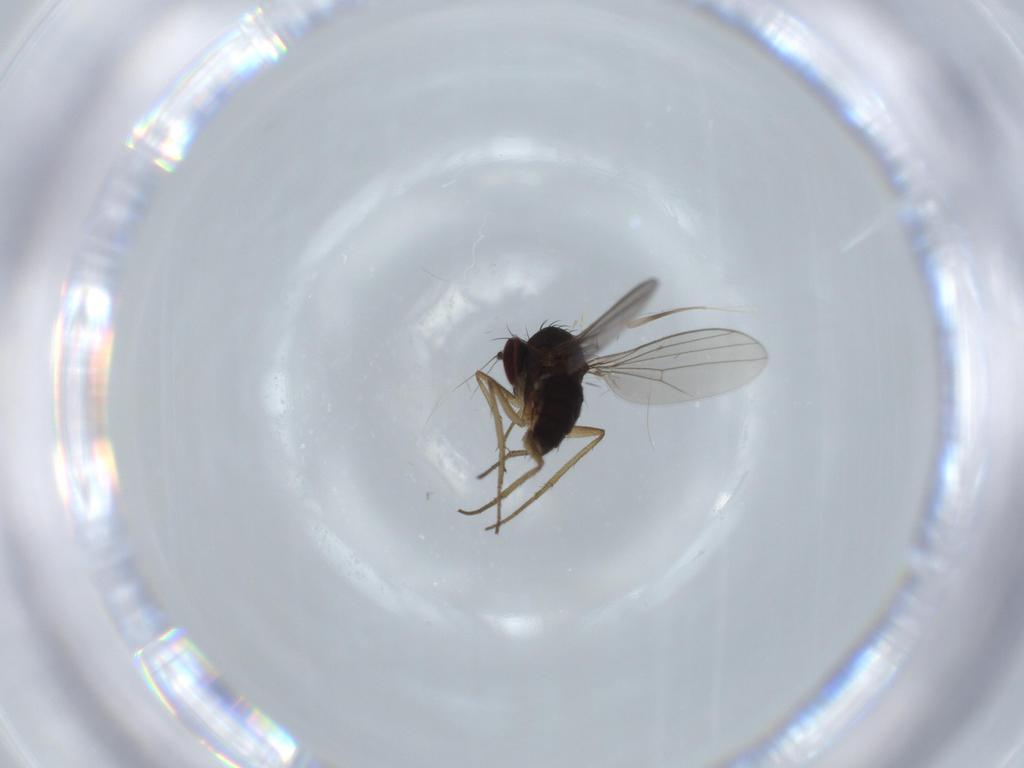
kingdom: Animalia
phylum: Arthropoda
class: Insecta
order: Diptera
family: Dolichopodidae
